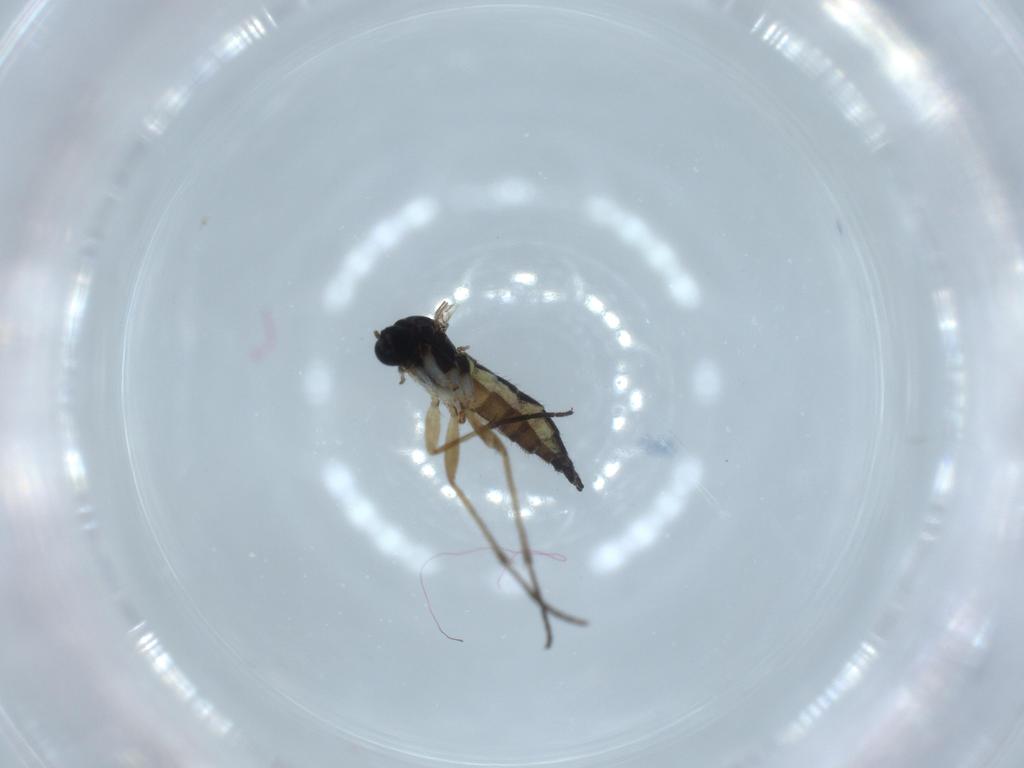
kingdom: Animalia
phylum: Arthropoda
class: Insecta
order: Diptera
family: Sciaridae
